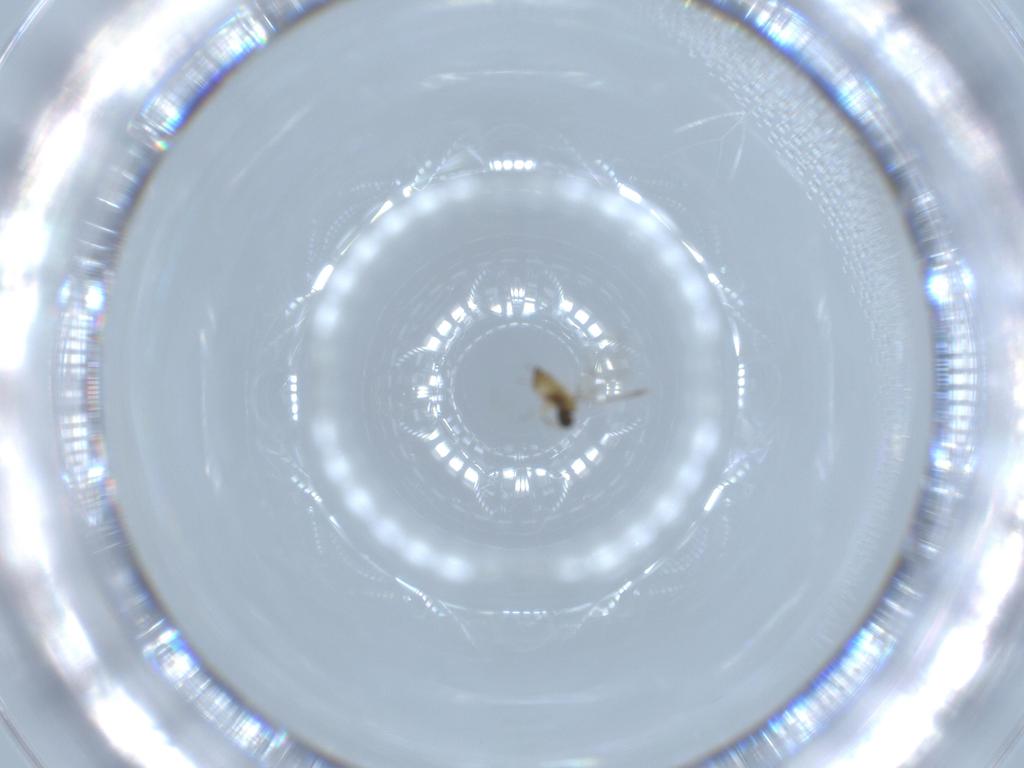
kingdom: Animalia
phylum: Arthropoda
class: Insecta
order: Hymenoptera
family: Trichogrammatidae
